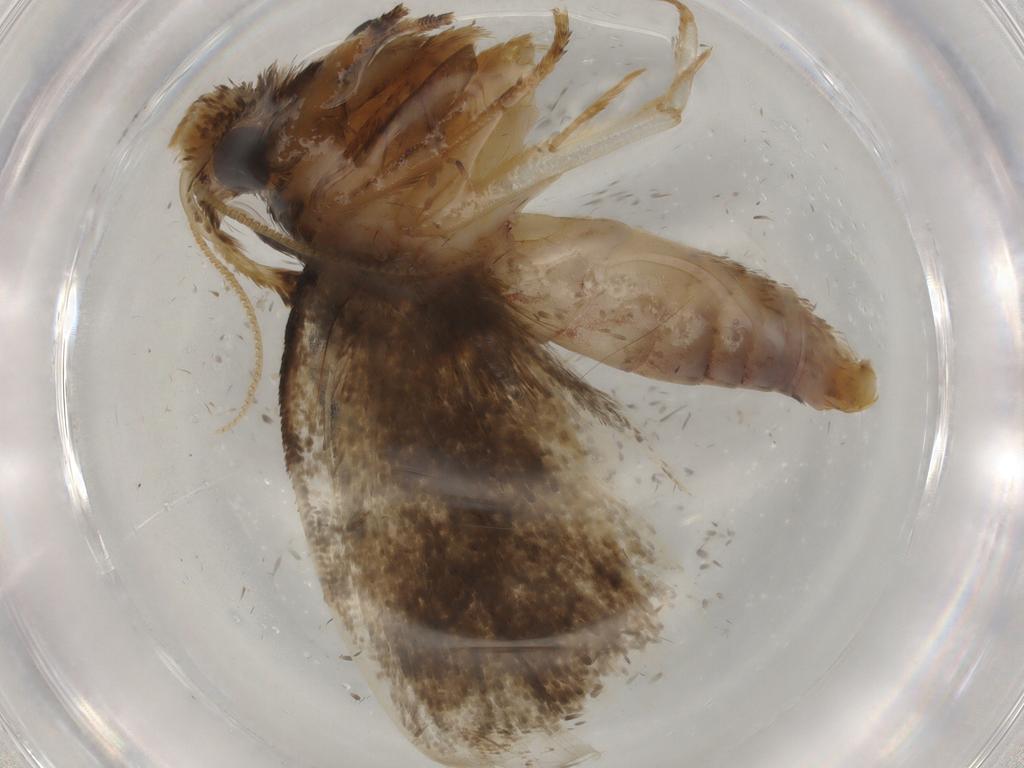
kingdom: Animalia
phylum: Arthropoda
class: Insecta
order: Lepidoptera
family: Tineidae
